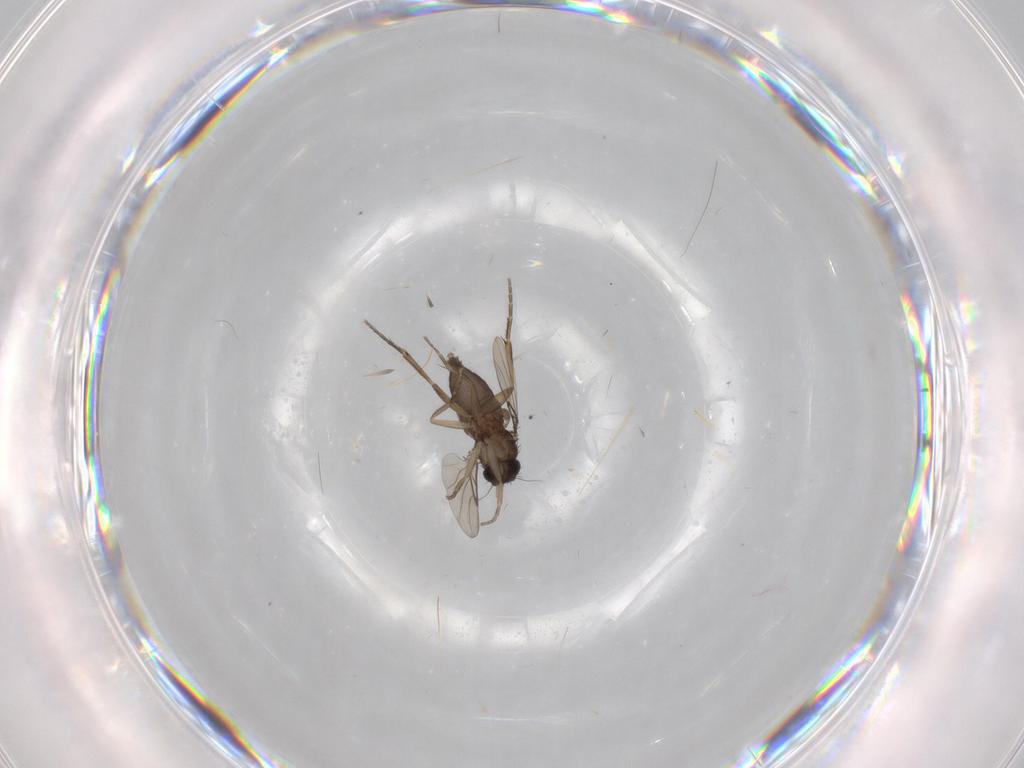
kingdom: Animalia
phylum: Arthropoda
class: Insecta
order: Diptera
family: Phoridae
